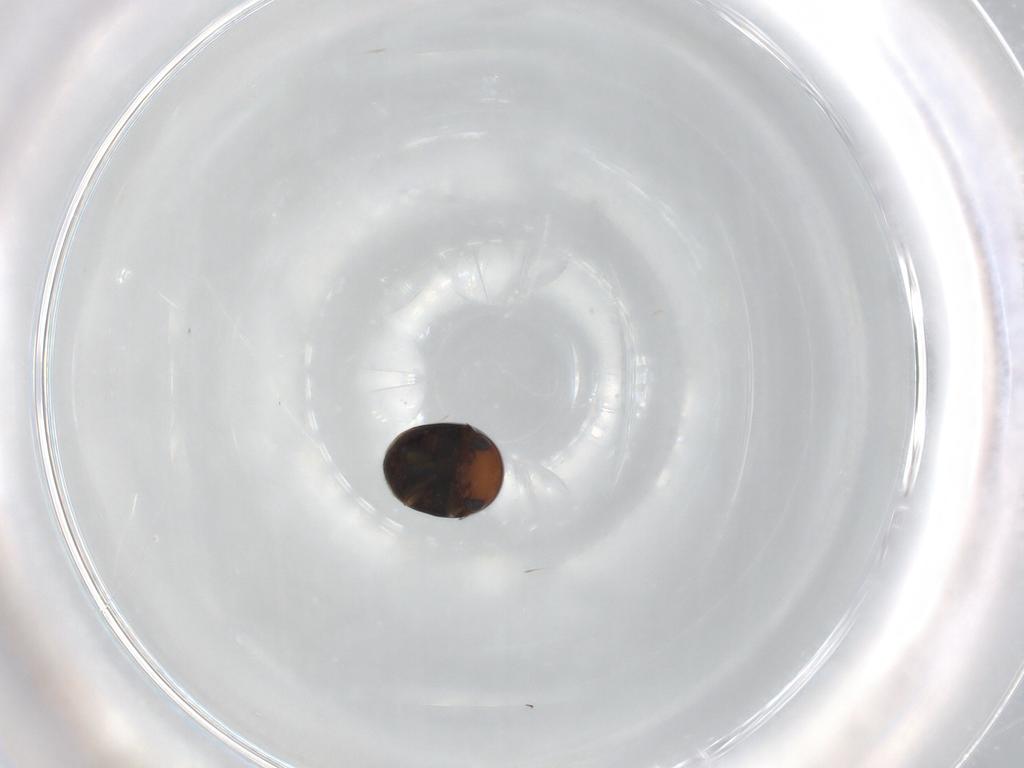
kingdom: Animalia
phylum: Arthropoda
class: Insecta
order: Coleoptera
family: Cybocephalidae
